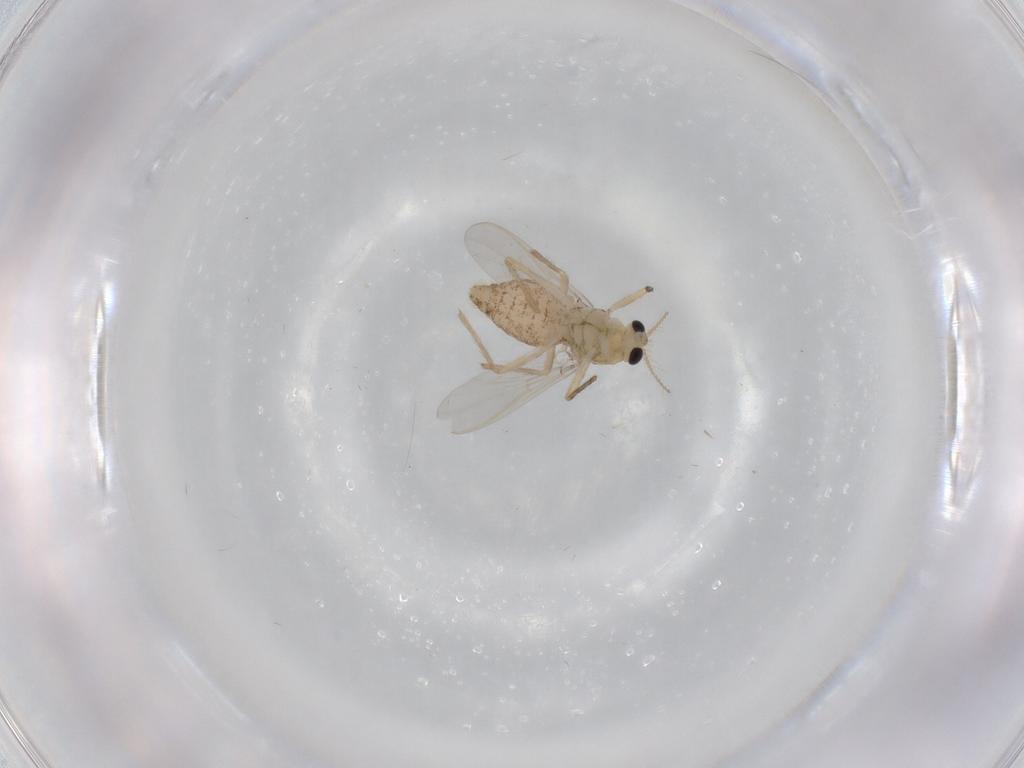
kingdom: Animalia
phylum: Arthropoda
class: Insecta
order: Diptera
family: Chironomidae
